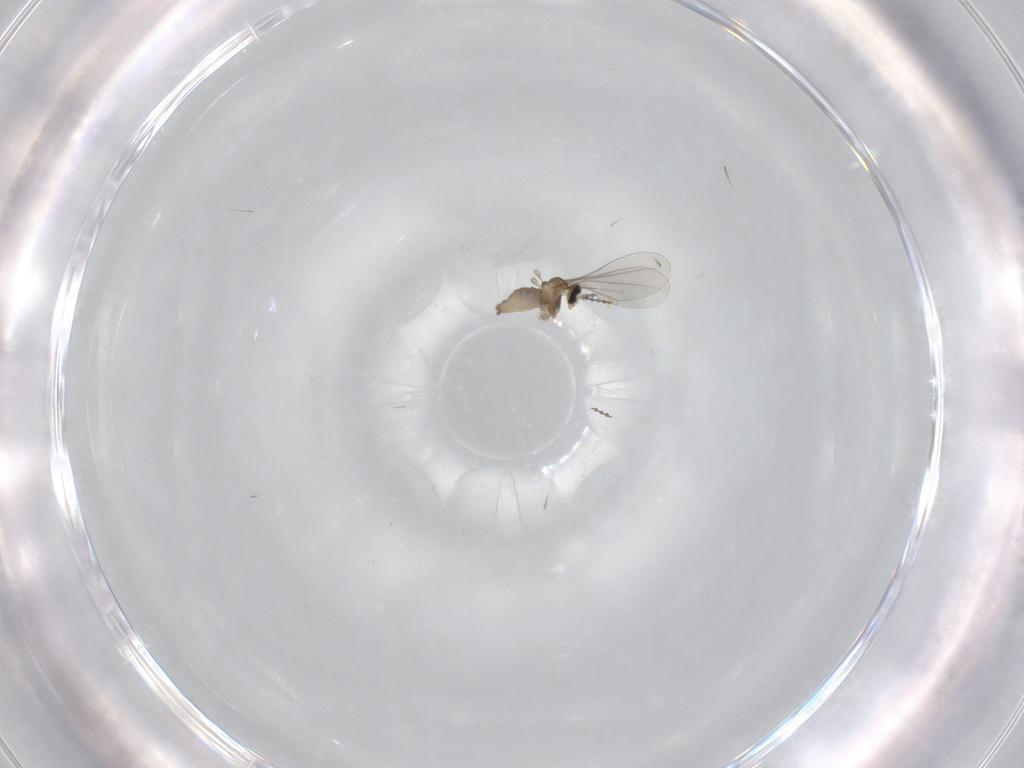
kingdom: Animalia
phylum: Arthropoda
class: Insecta
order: Diptera
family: Cecidomyiidae
